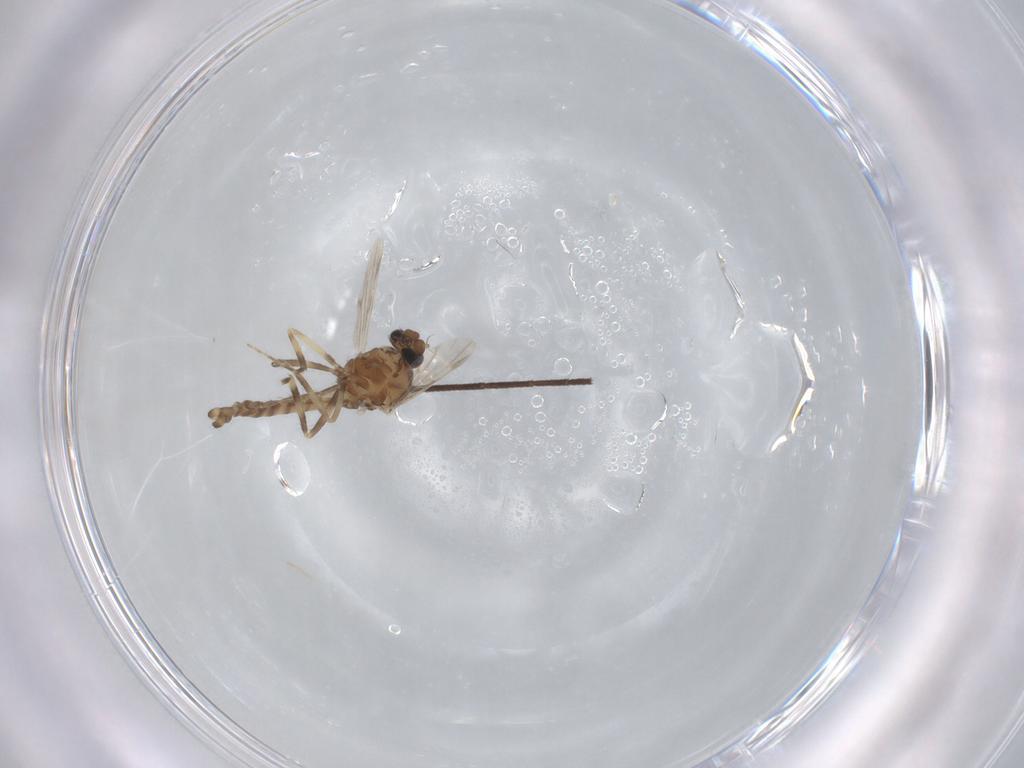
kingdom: Animalia
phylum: Arthropoda
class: Insecta
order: Diptera
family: Ceratopogonidae
